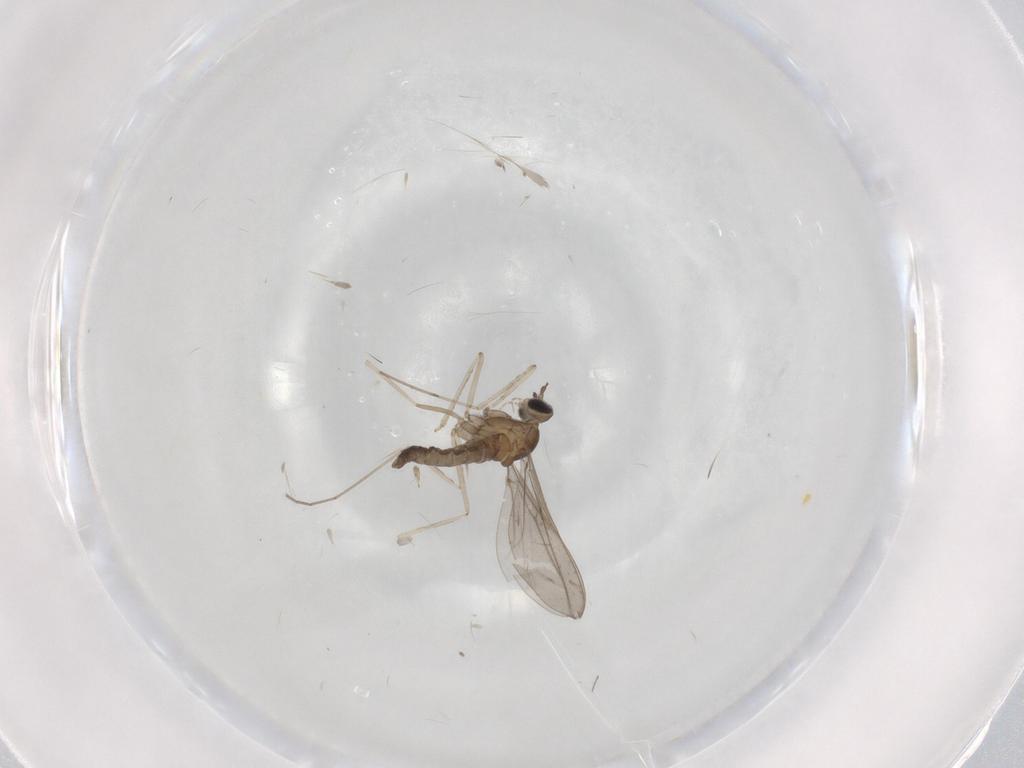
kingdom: Animalia
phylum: Arthropoda
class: Insecta
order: Diptera
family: Cecidomyiidae
